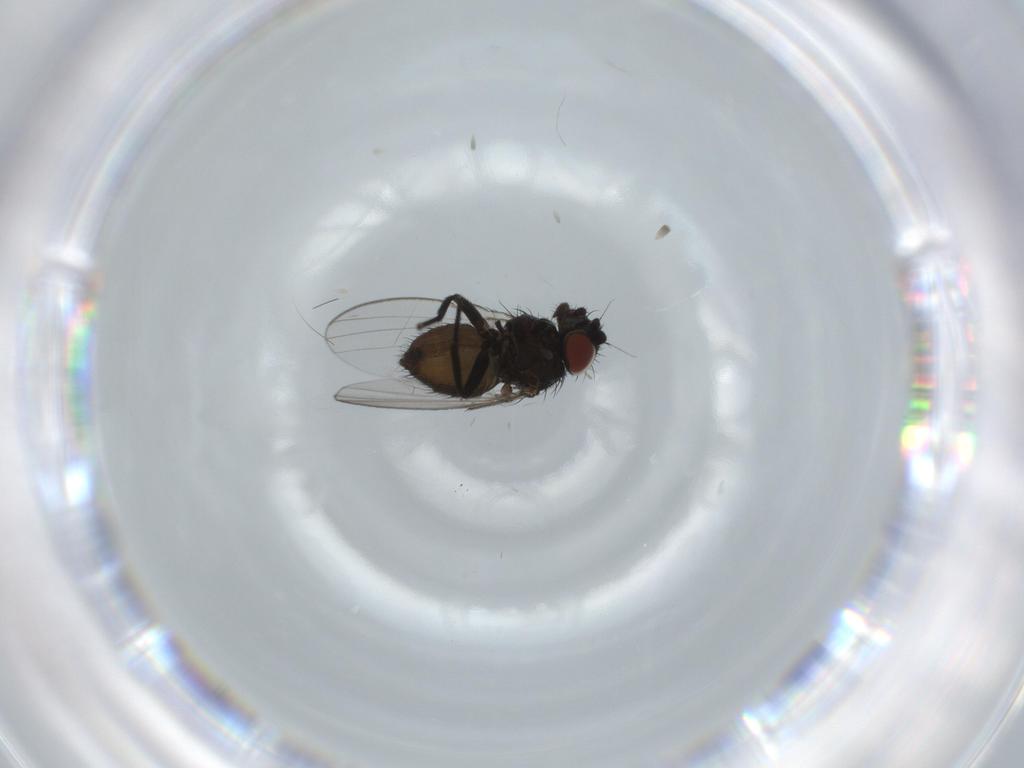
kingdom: Animalia
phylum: Arthropoda
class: Insecta
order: Diptera
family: Milichiidae
